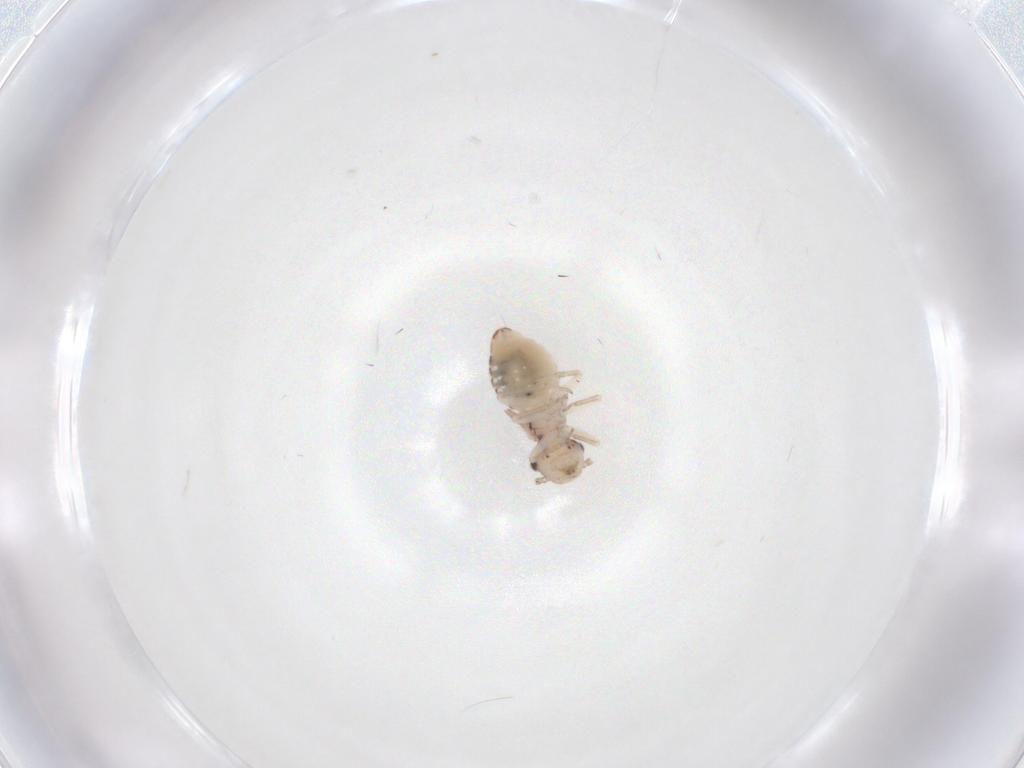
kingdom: Animalia
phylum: Arthropoda
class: Insecta
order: Psocodea
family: Ectopsocidae
